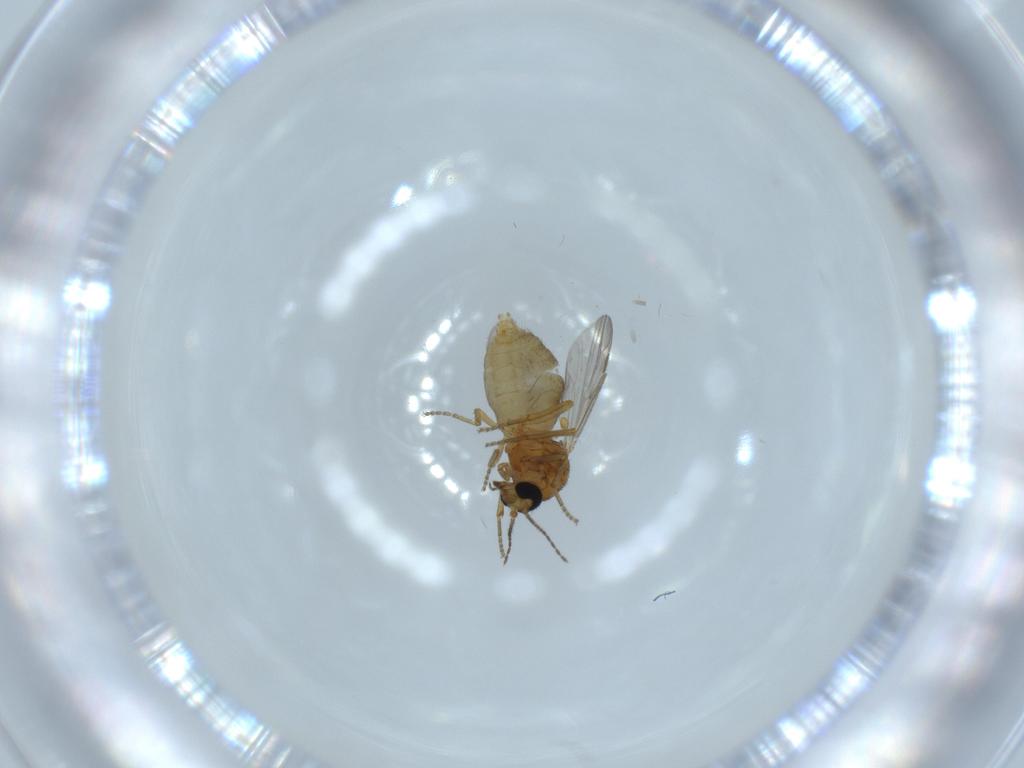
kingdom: Animalia
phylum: Arthropoda
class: Insecta
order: Diptera
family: Ceratopogonidae
